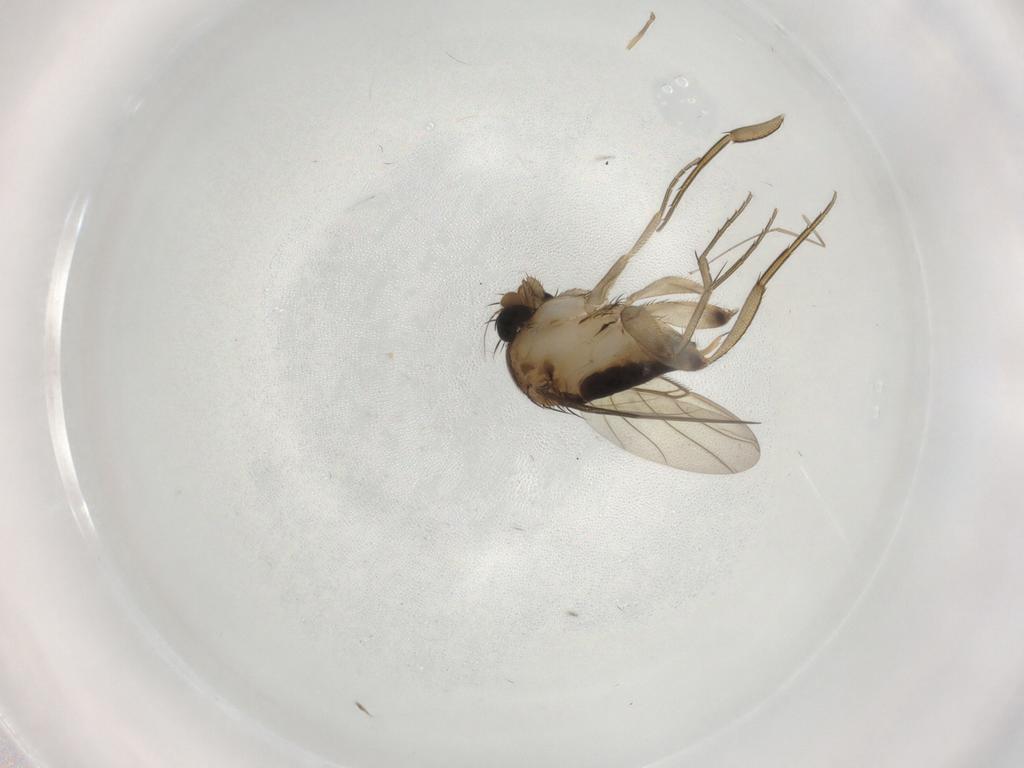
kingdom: Animalia
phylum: Arthropoda
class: Insecta
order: Diptera
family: Phoridae
